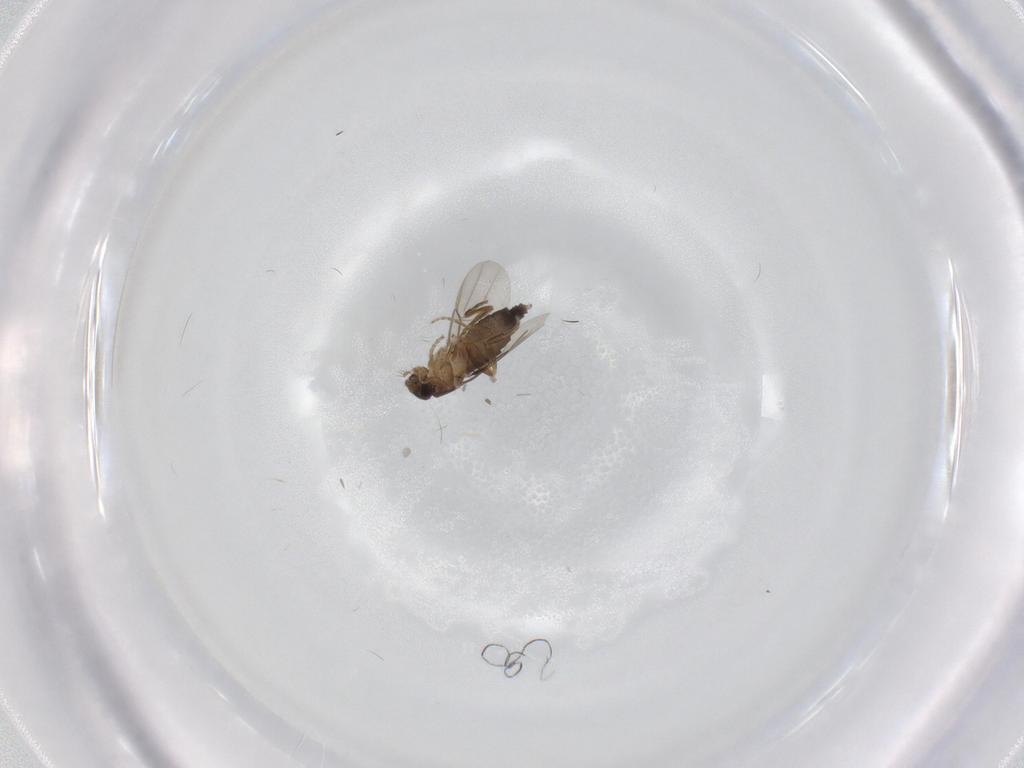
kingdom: Animalia
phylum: Arthropoda
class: Insecta
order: Diptera
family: Phoridae
